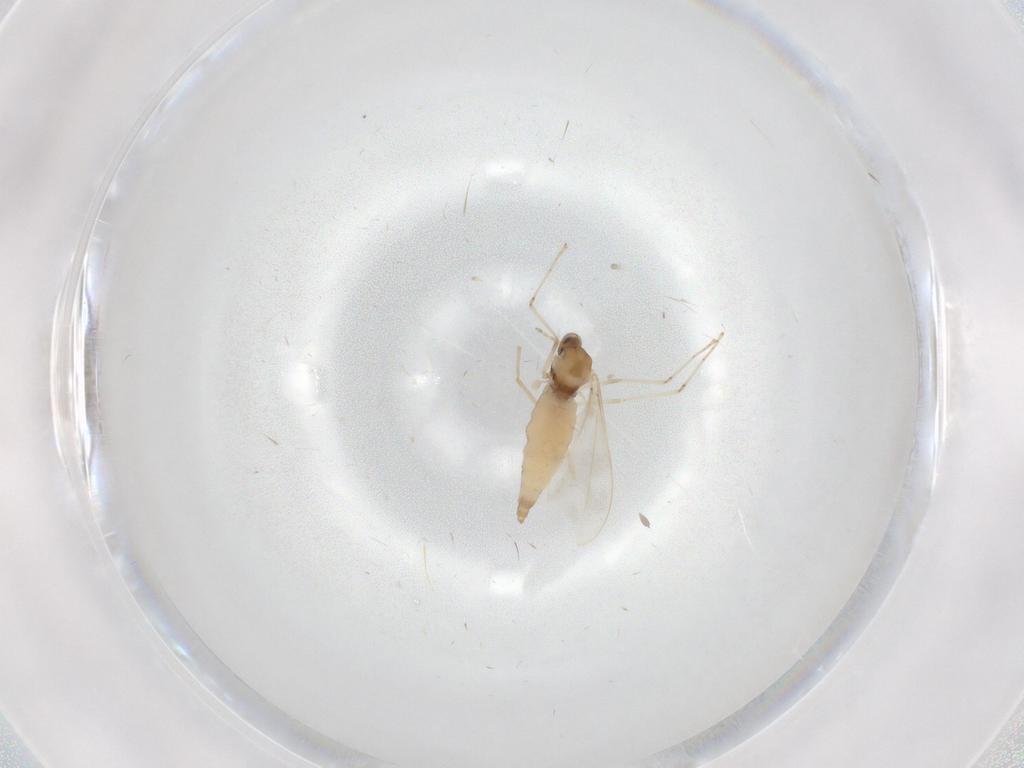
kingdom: Animalia
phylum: Arthropoda
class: Insecta
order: Diptera
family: Cecidomyiidae
